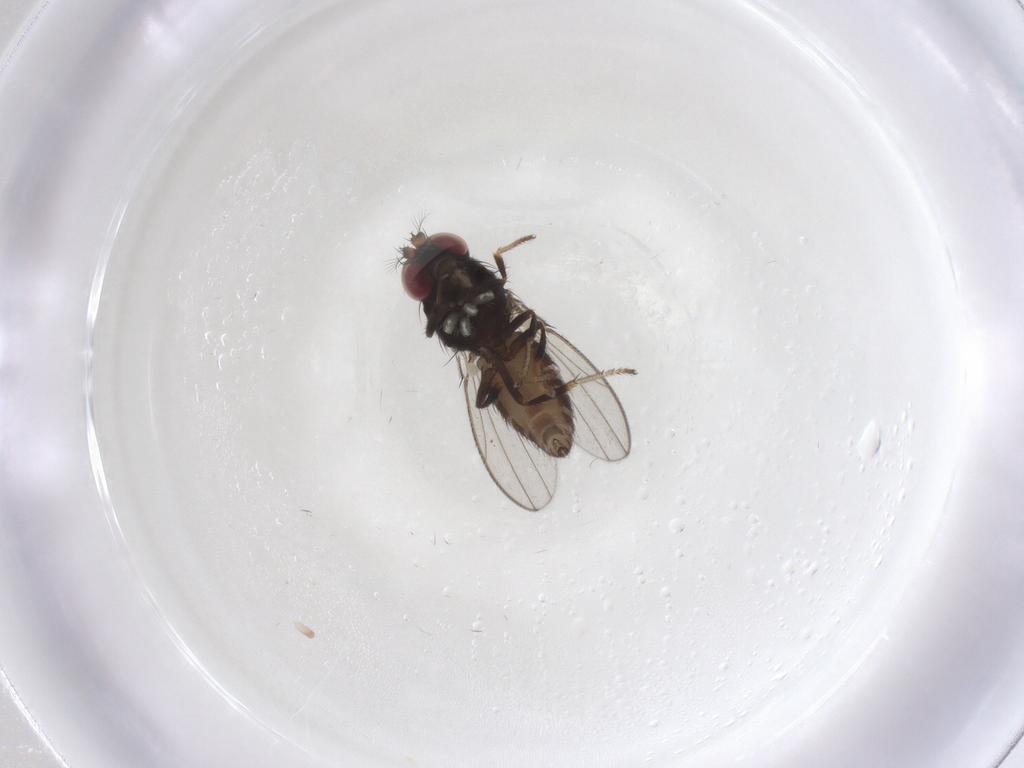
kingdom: Animalia
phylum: Arthropoda
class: Insecta
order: Diptera
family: Ephydridae
